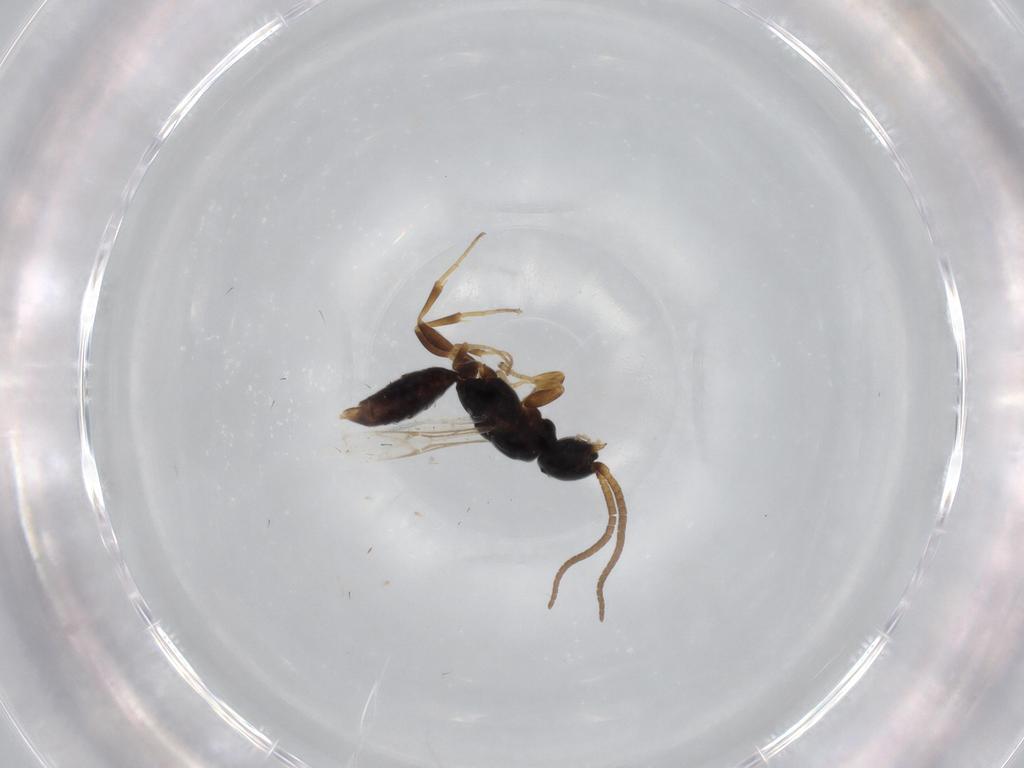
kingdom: Animalia
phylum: Arthropoda
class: Insecta
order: Hymenoptera
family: Sclerogibbidae
